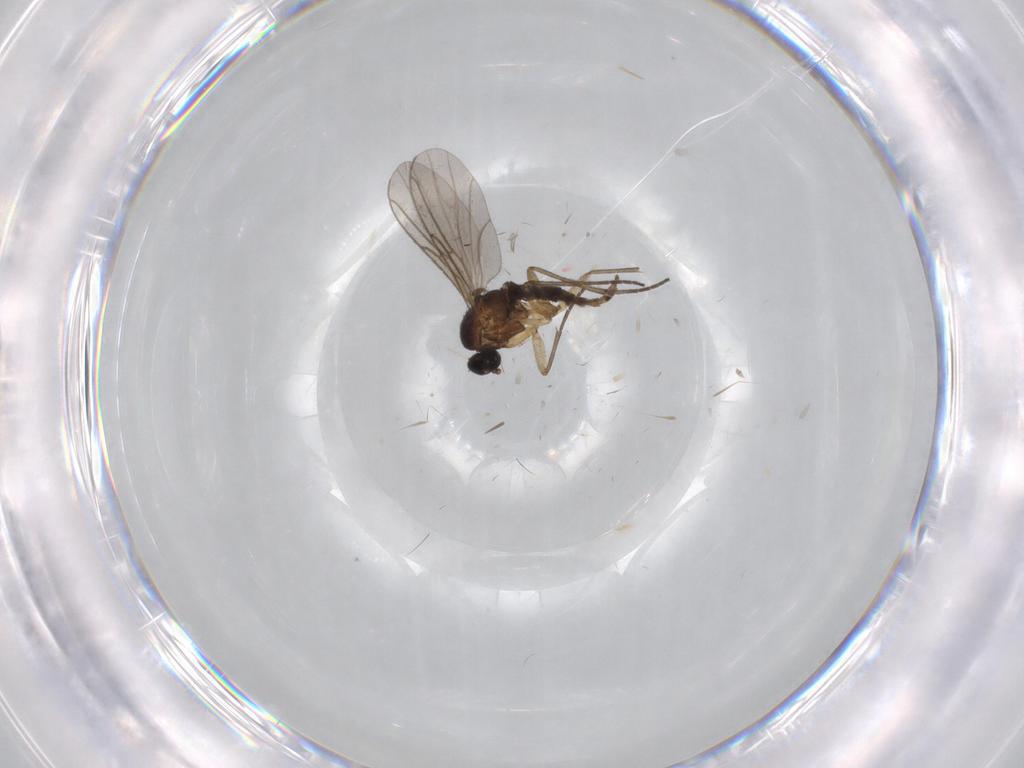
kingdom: Animalia
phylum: Arthropoda
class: Insecta
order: Diptera
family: Sciaridae
